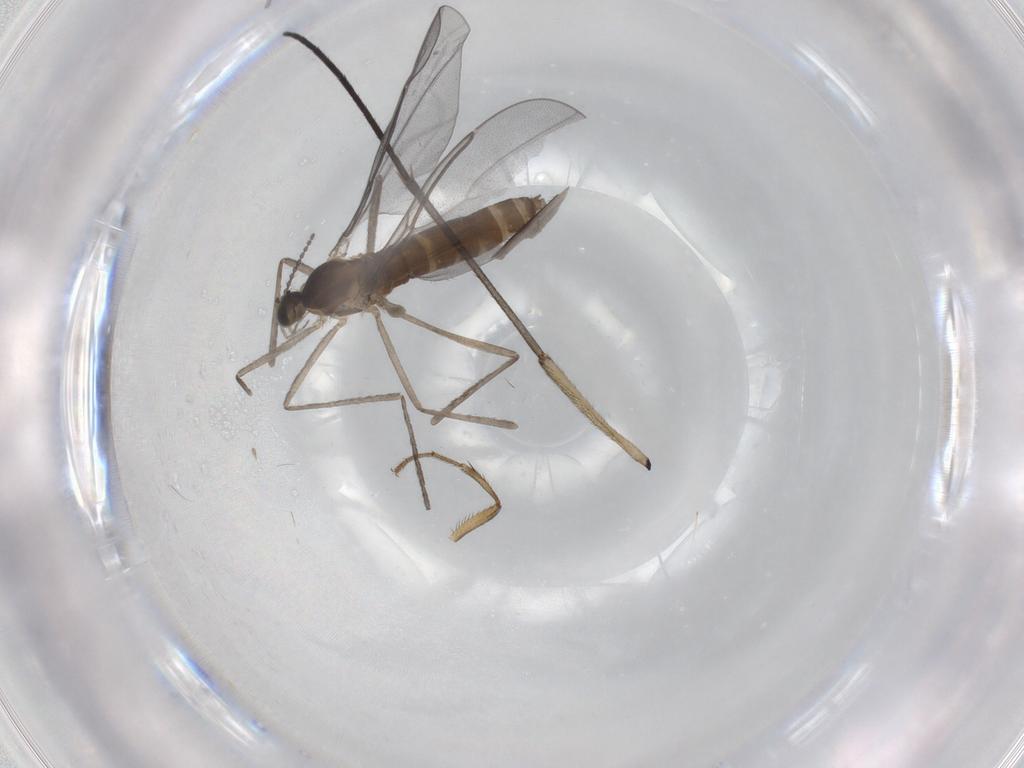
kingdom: Animalia
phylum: Arthropoda
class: Insecta
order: Diptera
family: Cecidomyiidae
